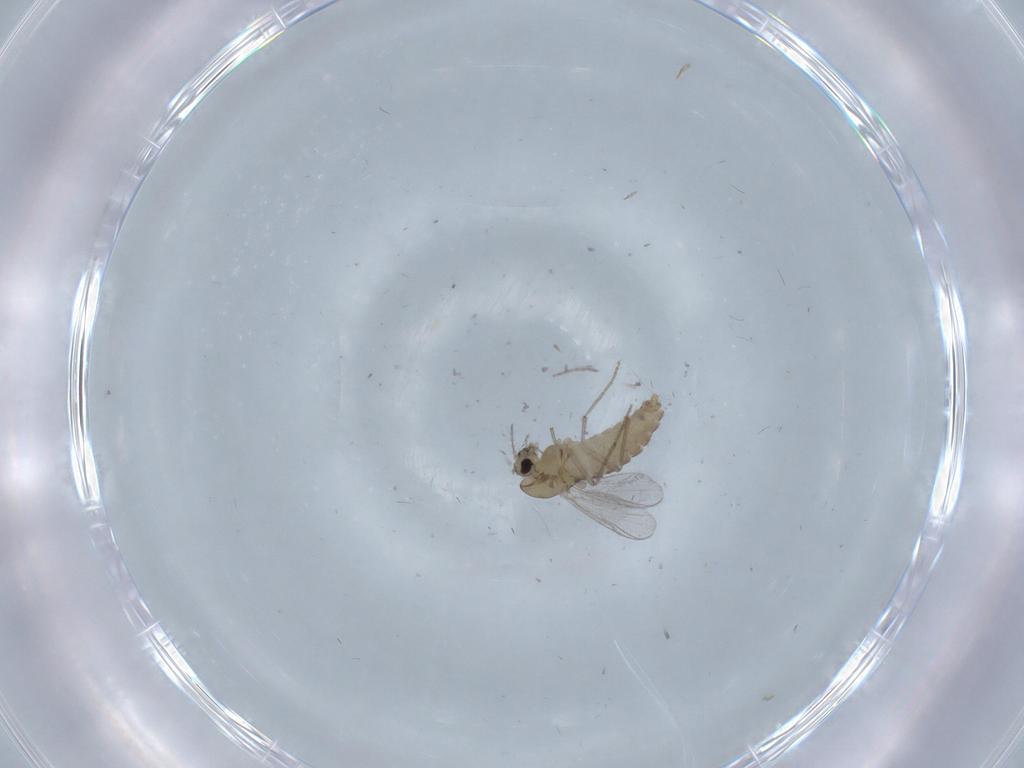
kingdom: Animalia
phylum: Arthropoda
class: Insecta
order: Diptera
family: Chironomidae
